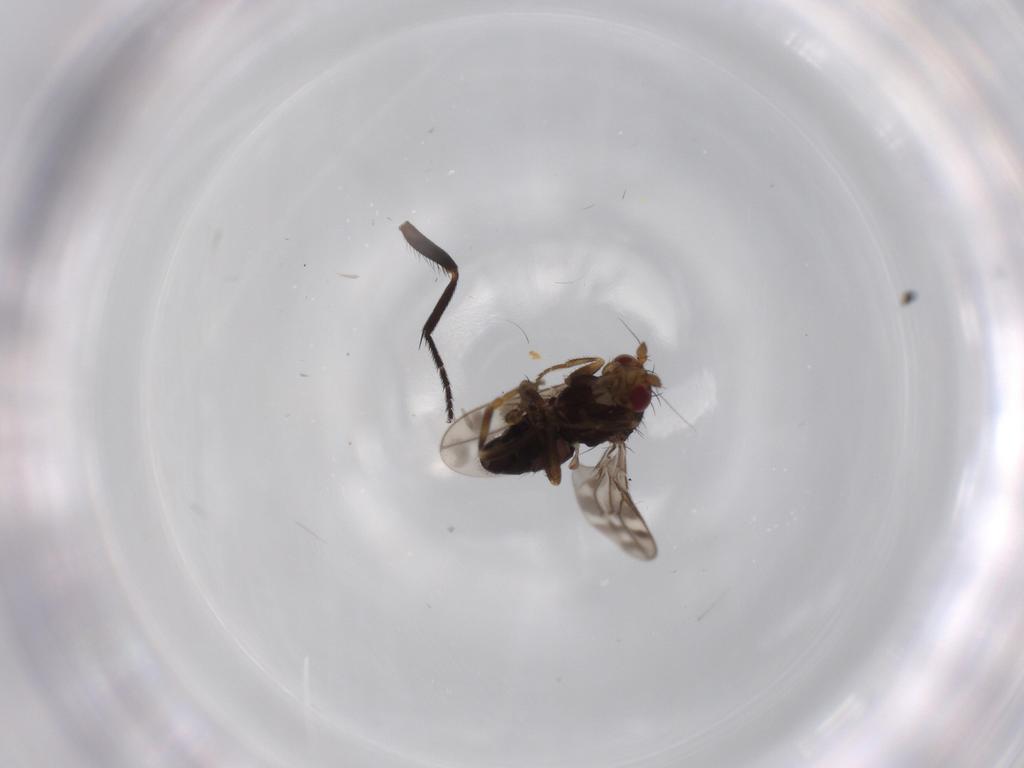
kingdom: Animalia
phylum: Arthropoda
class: Insecta
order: Diptera
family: Sphaeroceridae
